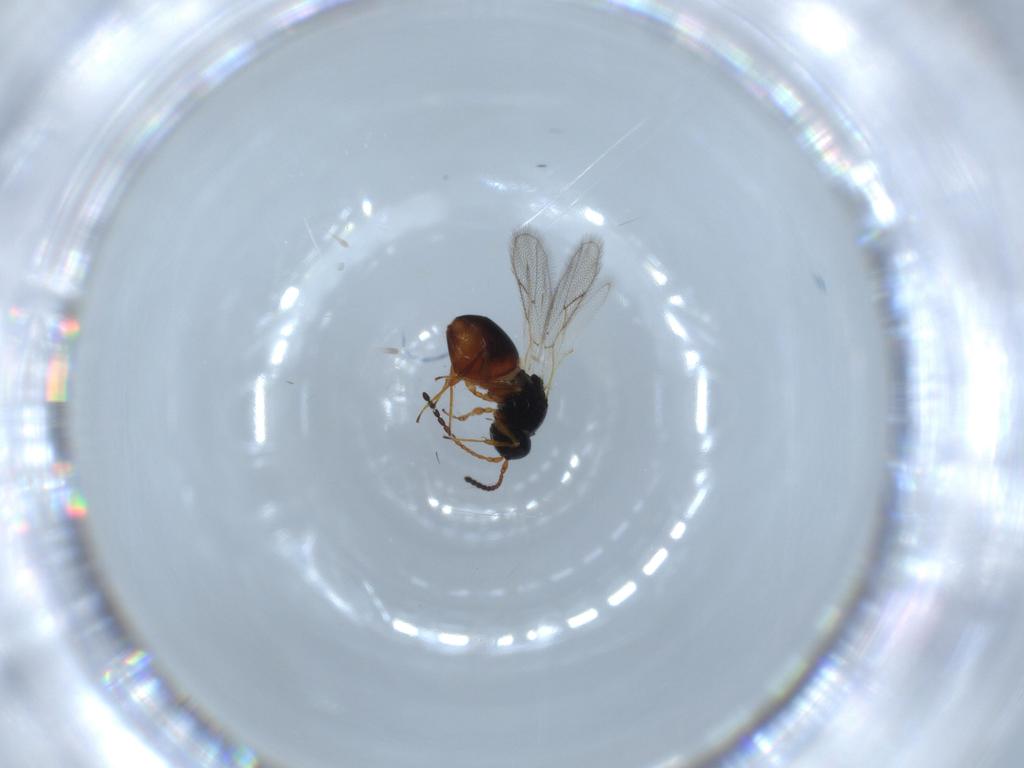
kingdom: Animalia
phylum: Arthropoda
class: Insecta
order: Hymenoptera
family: Figitidae
